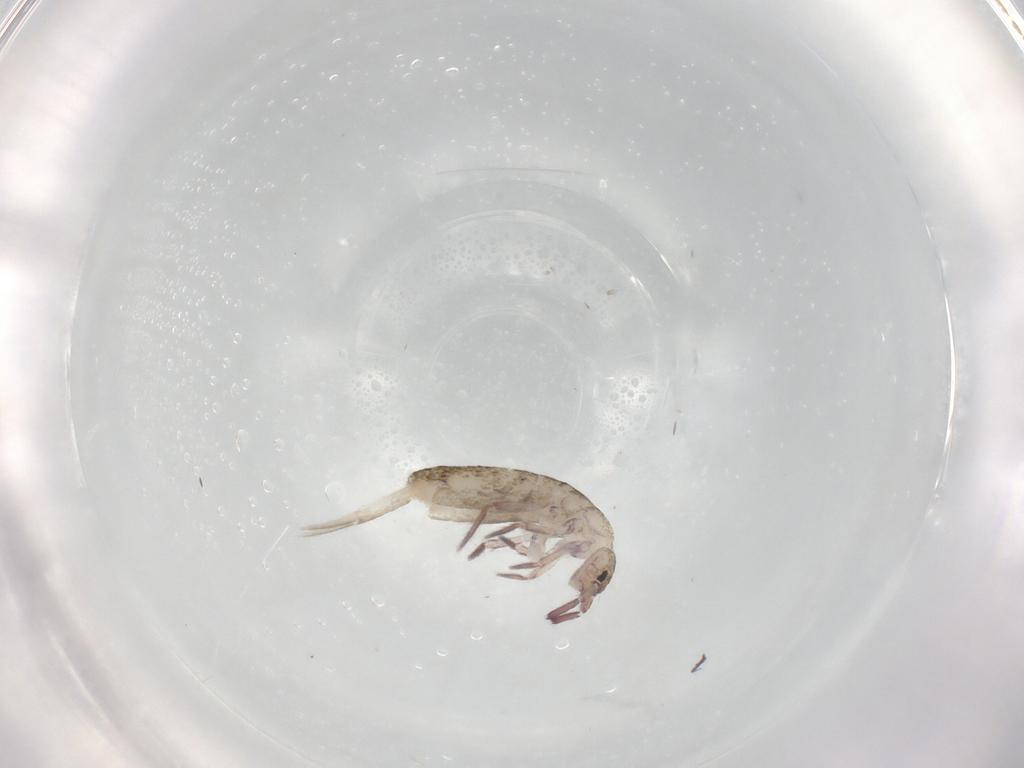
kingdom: Animalia
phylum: Arthropoda
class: Collembola
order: Entomobryomorpha
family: Entomobryidae
